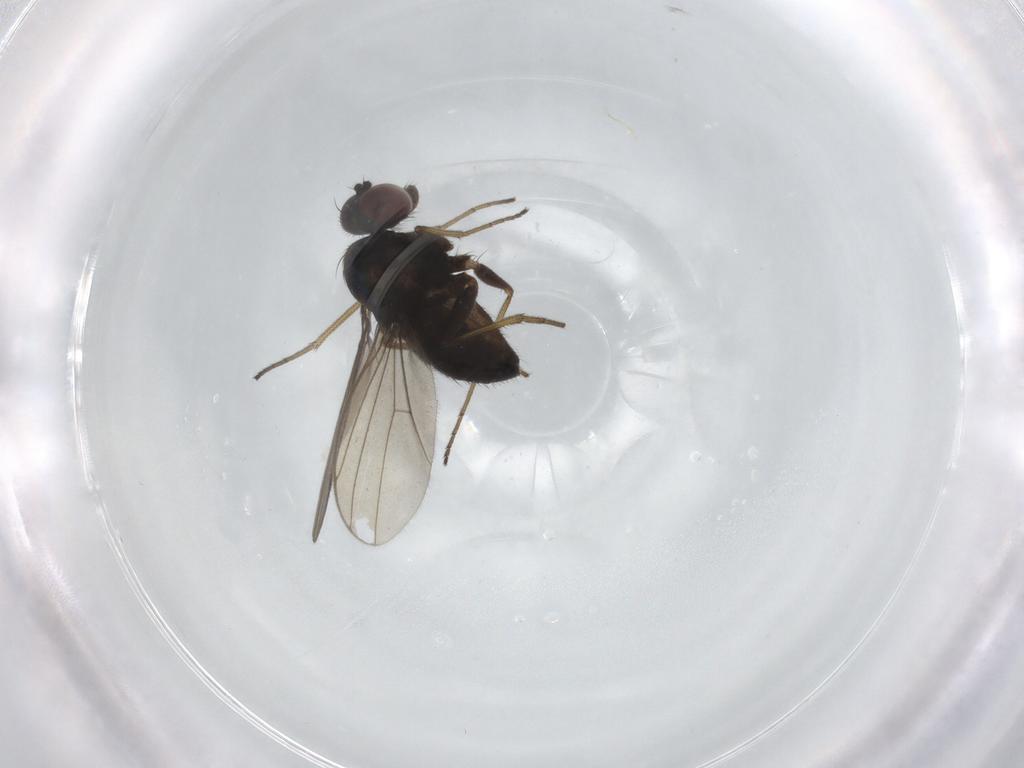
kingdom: Animalia
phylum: Arthropoda
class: Insecta
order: Diptera
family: Dolichopodidae
